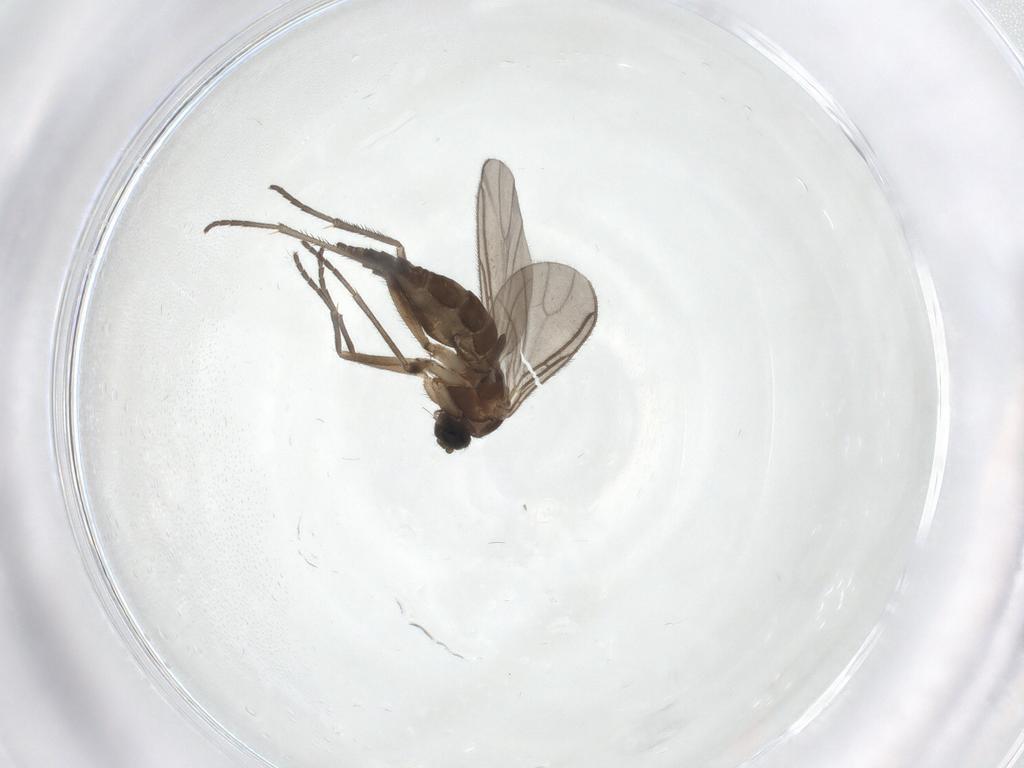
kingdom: Animalia
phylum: Arthropoda
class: Insecta
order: Diptera
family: Sciaridae
